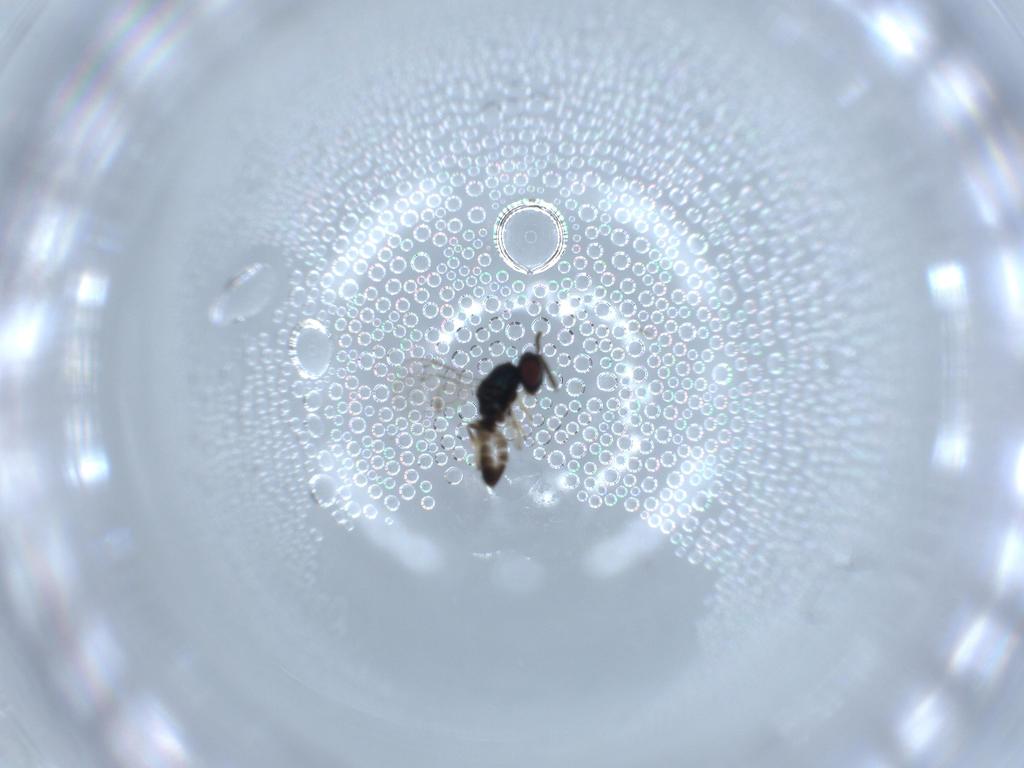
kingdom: Animalia
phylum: Arthropoda
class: Insecta
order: Hymenoptera
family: Pteromalidae
